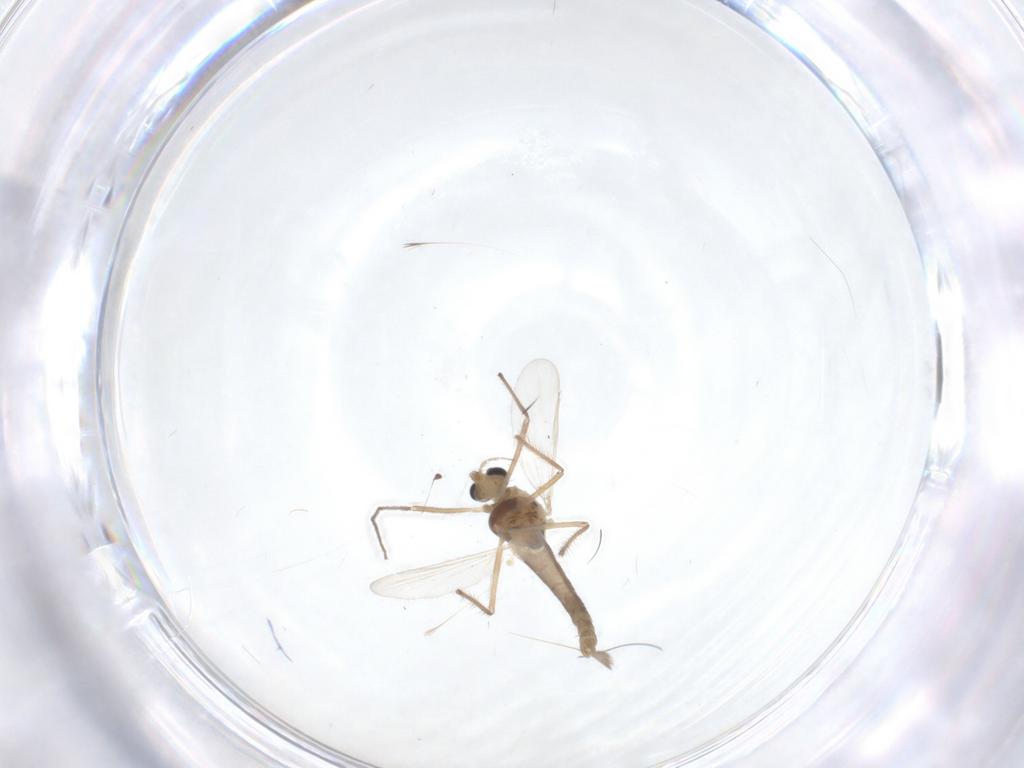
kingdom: Animalia
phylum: Arthropoda
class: Insecta
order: Diptera
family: Chironomidae
